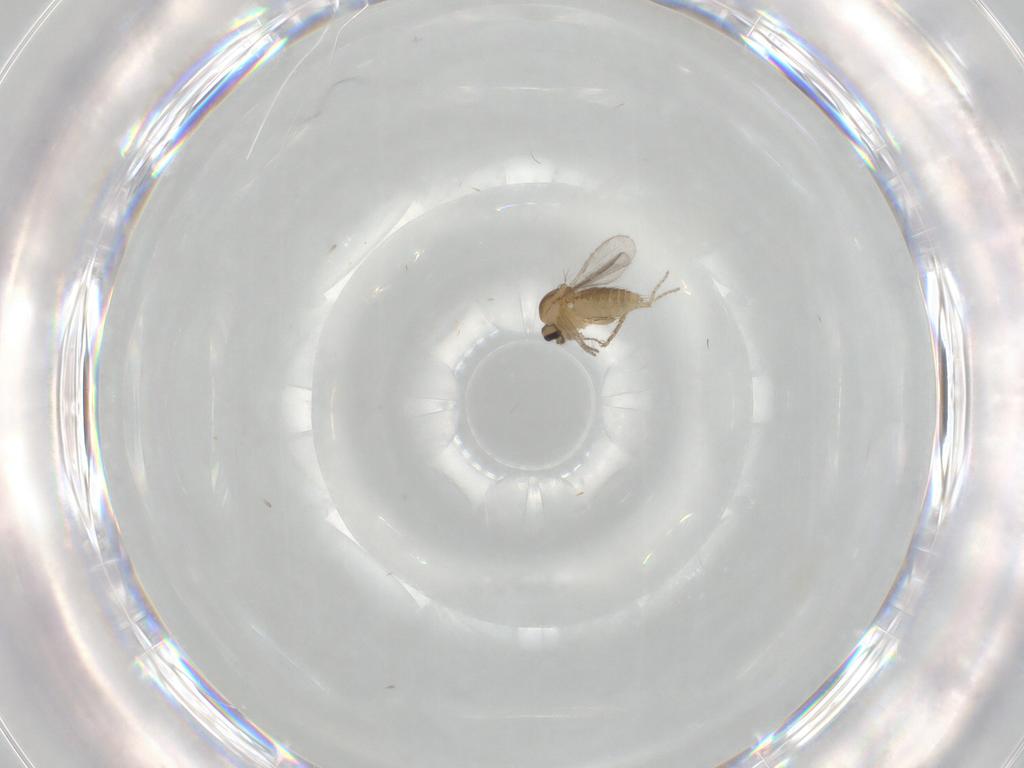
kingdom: Animalia
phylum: Arthropoda
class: Insecta
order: Diptera
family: Ceratopogonidae
